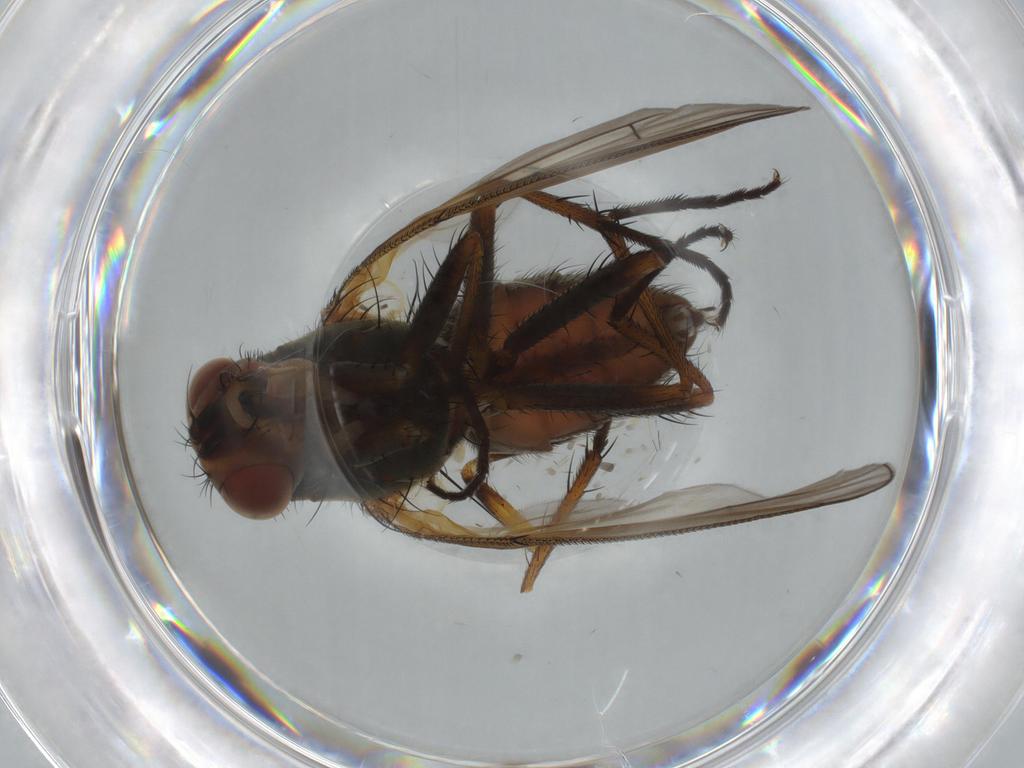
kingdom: Animalia
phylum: Arthropoda
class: Insecta
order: Diptera
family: Anthomyiidae
